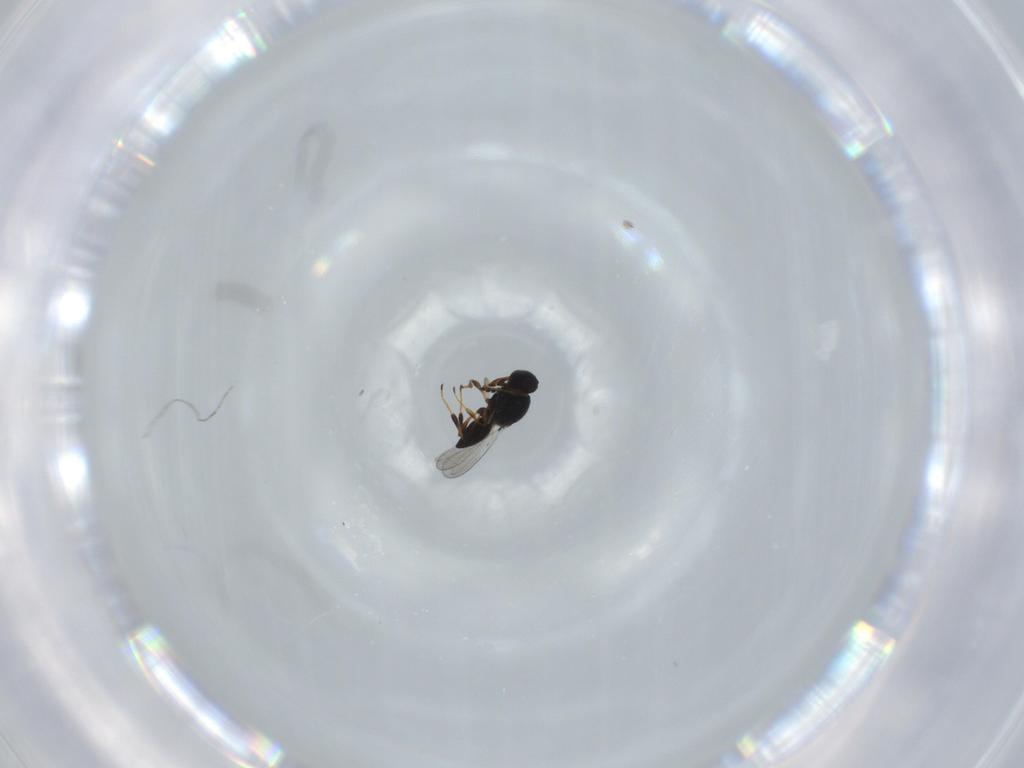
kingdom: Animalia
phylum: Arthropoda
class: Insecta
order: Hymenoptera
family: Platygastridae
